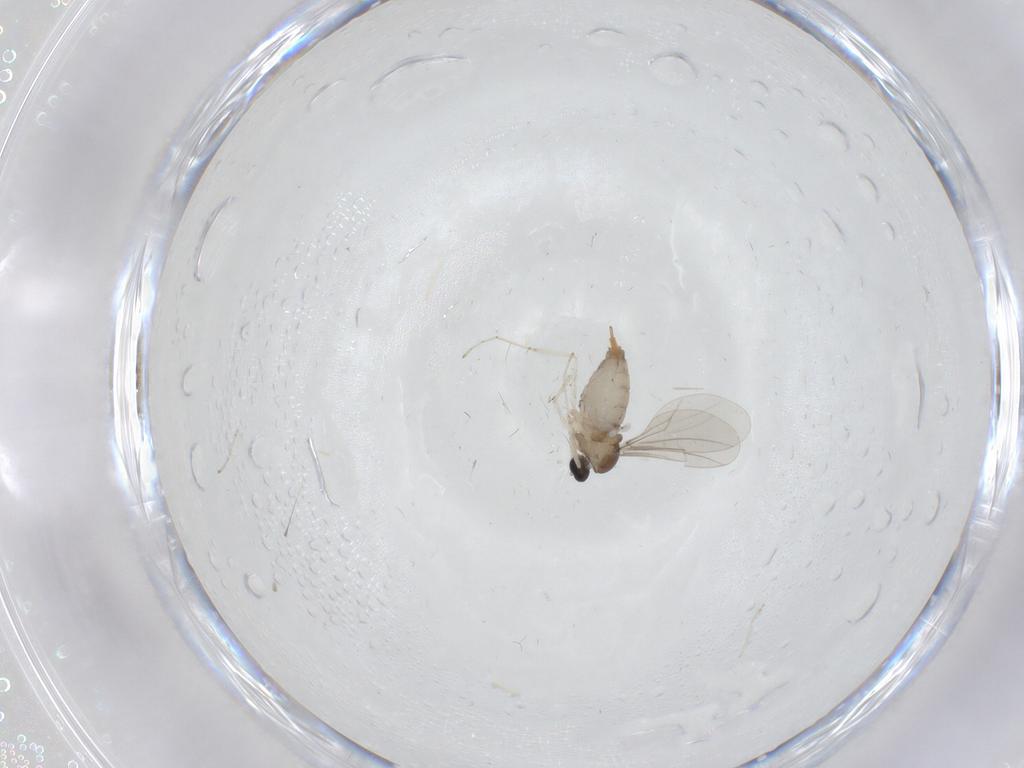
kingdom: Animalia
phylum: Arthropoda
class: Insecta
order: Diptera
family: Cecidomyiidae
